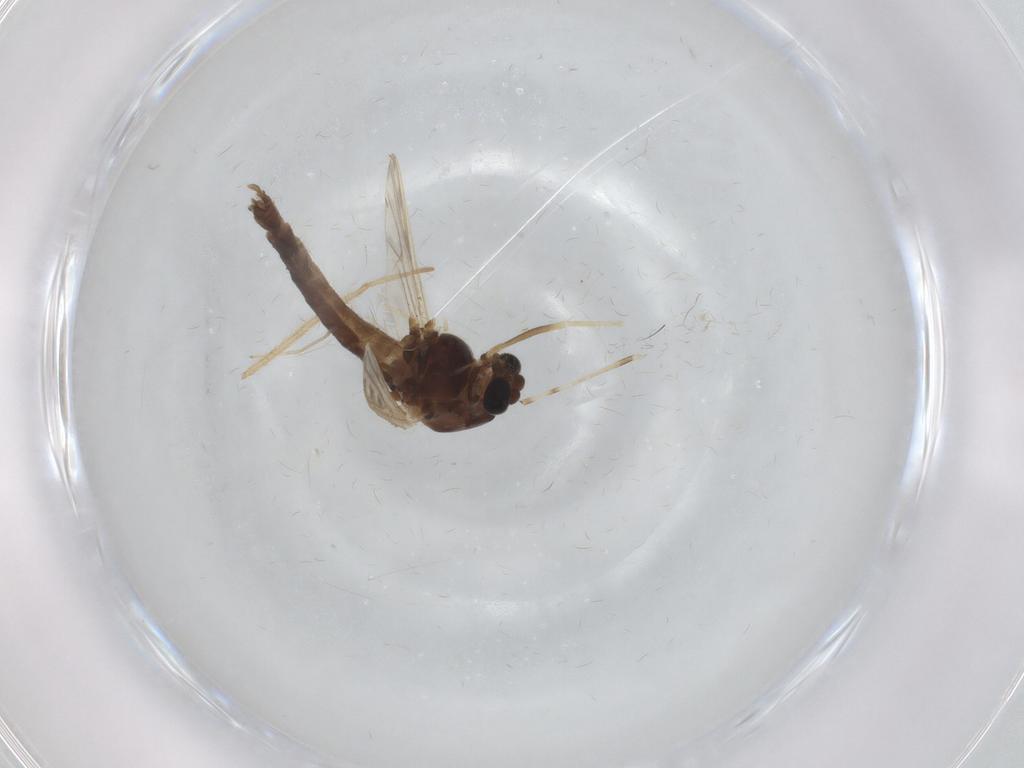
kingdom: Animalia
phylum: Arthropoda
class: Insecta
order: Diptera
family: Chironomidae
